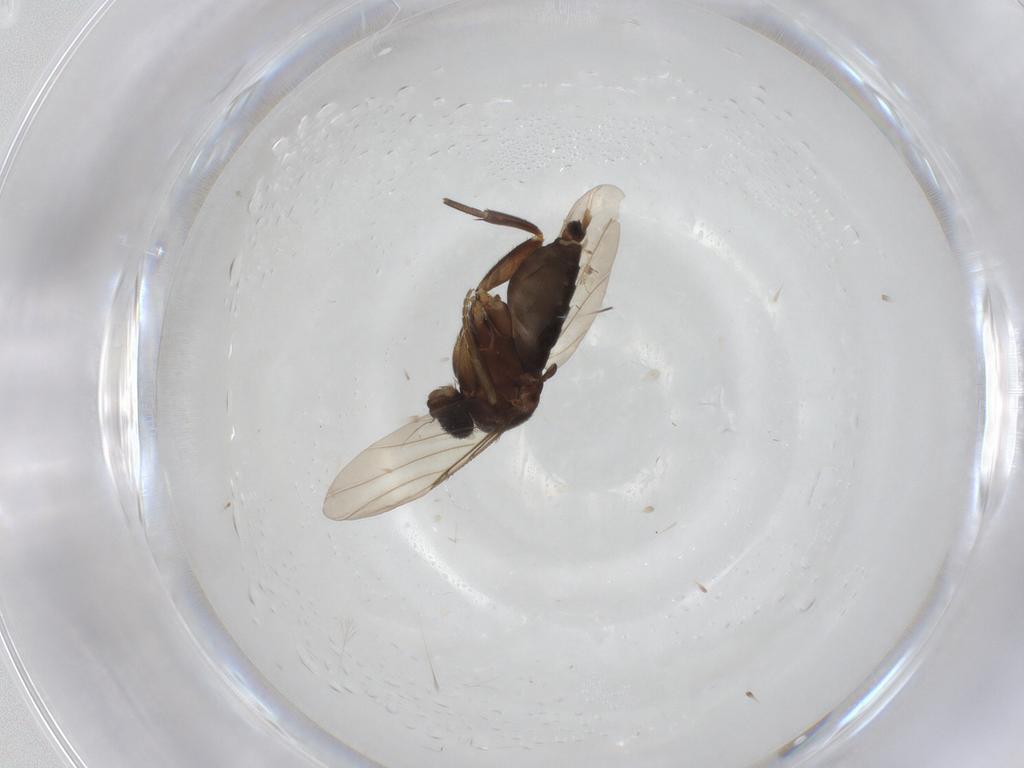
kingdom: Animalia
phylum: Arthropoda
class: Insecta
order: Diptera
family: Phoridae
